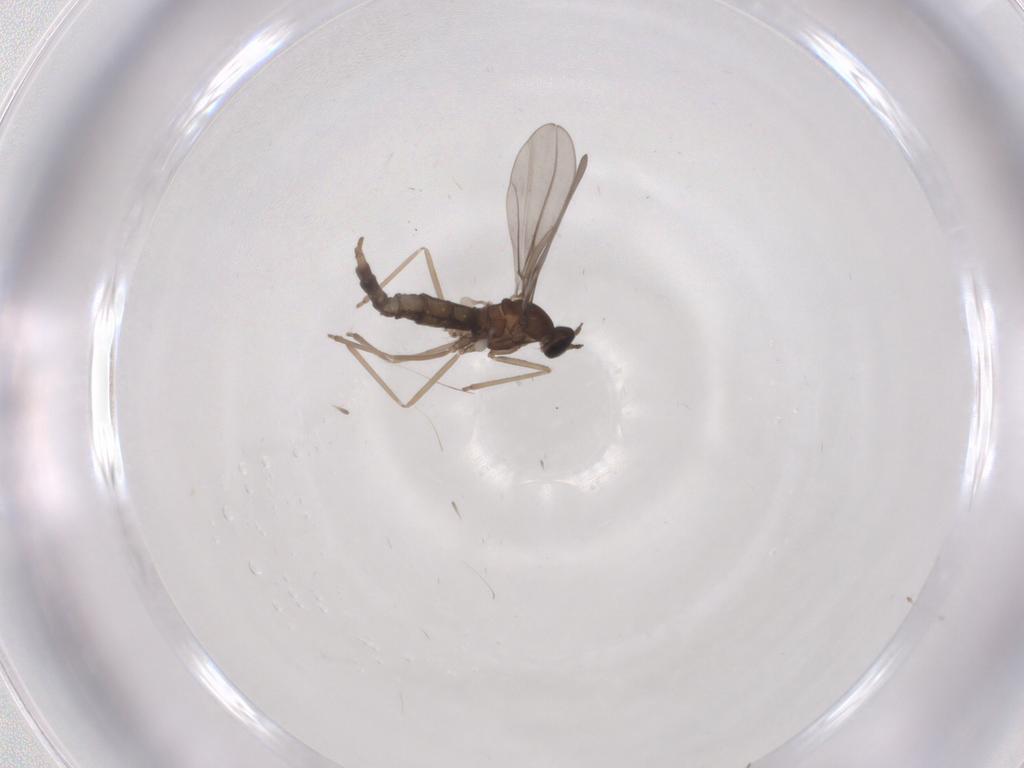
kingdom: Animalia
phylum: Arthropoda
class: Insecta
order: Diptera
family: Cecidomyiidae
